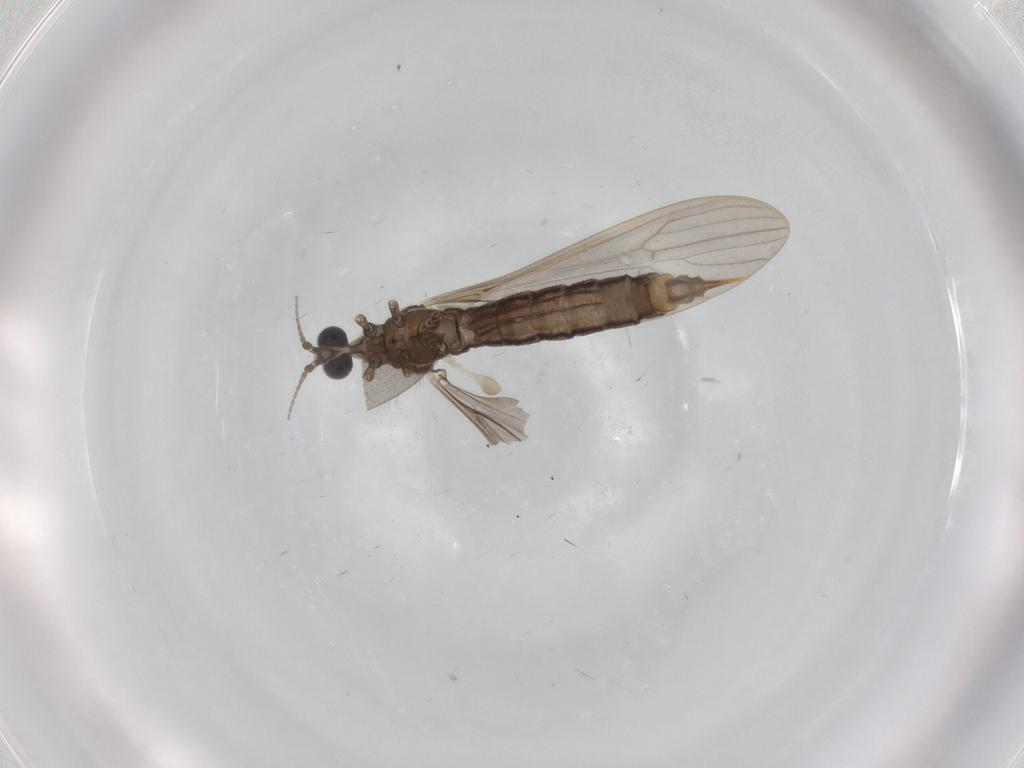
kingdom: Animalia
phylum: Arthropoda
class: Insecta
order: Diptera
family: Limoniidae
